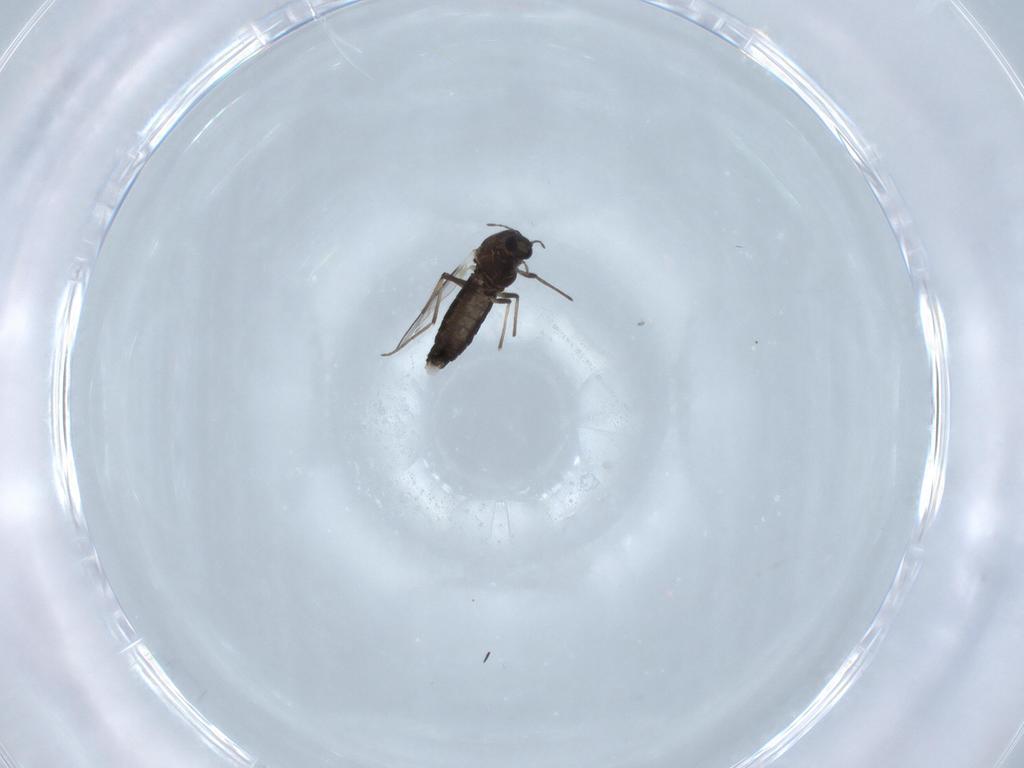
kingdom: Animalia
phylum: Arthropoda
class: Insecta
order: Diptera
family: Chironomidae
